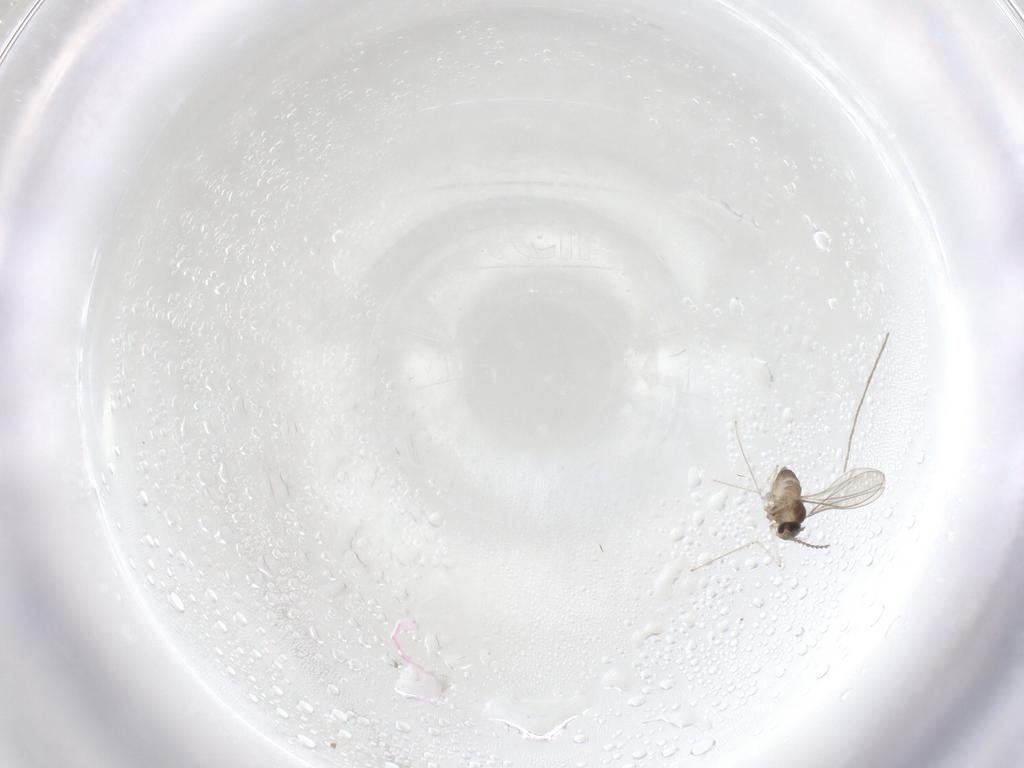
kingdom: Animalia
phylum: Arthropoda
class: Insecta
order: Diptera
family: Cecidomyiidae
